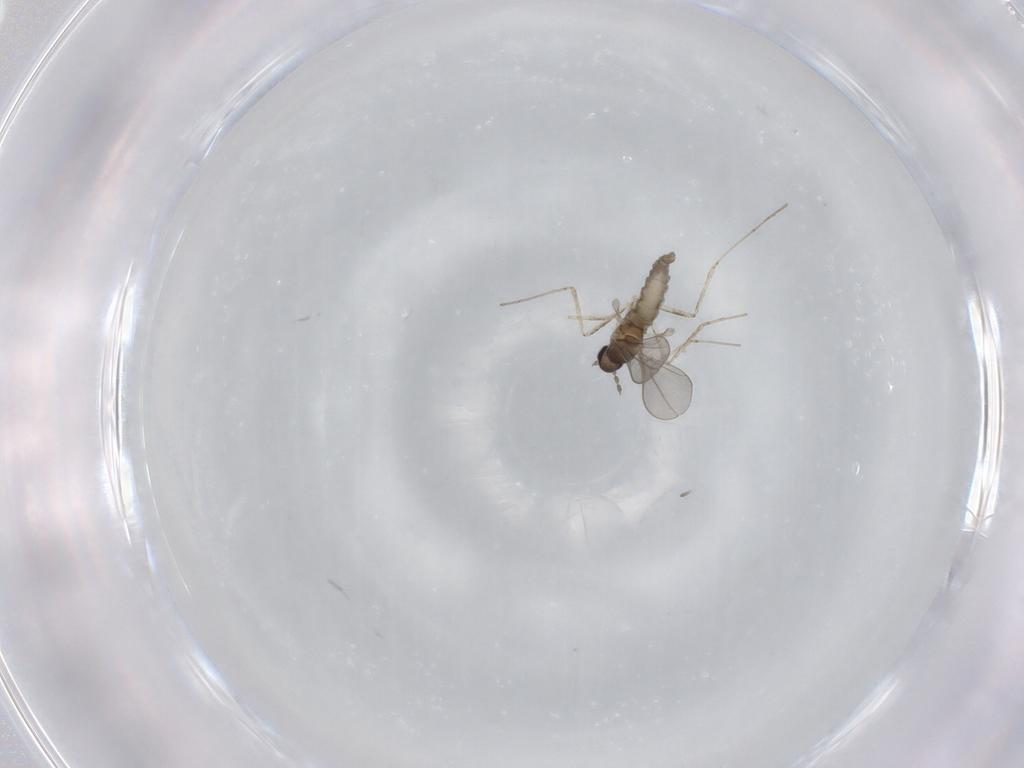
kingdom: Animalia
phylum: Arthropoda
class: Insecta
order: Diptera
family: Cecidomyiidae
